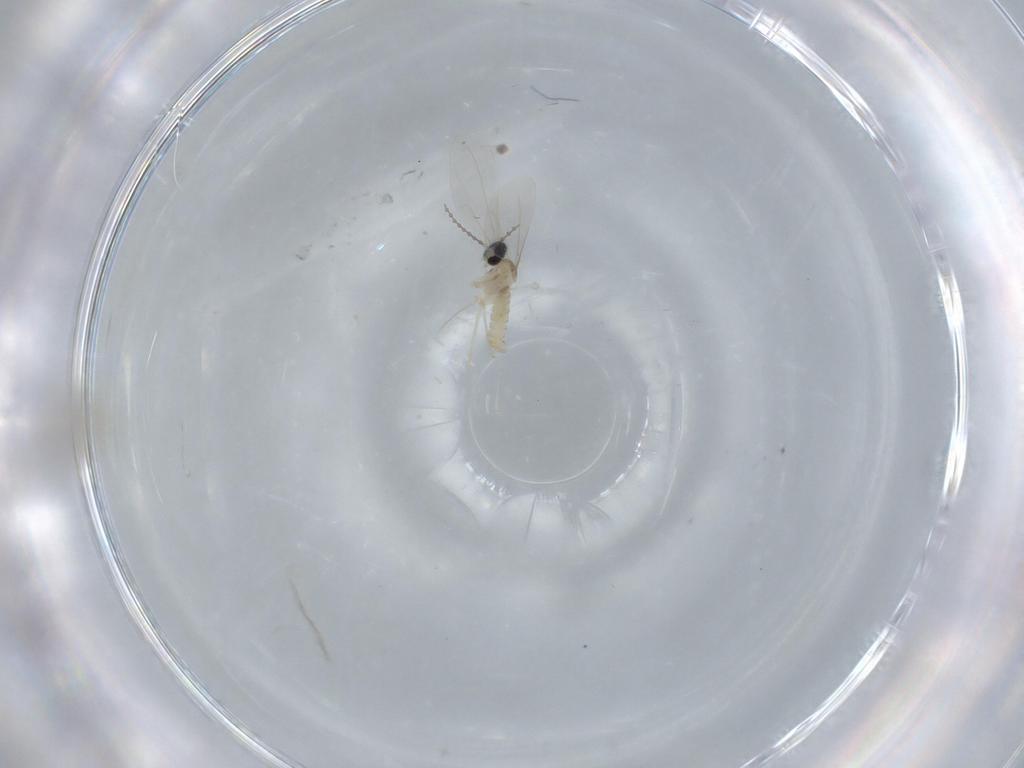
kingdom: Animalia
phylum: Arthropoda
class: Insecta
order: Diptera
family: Cecidomyiidae
